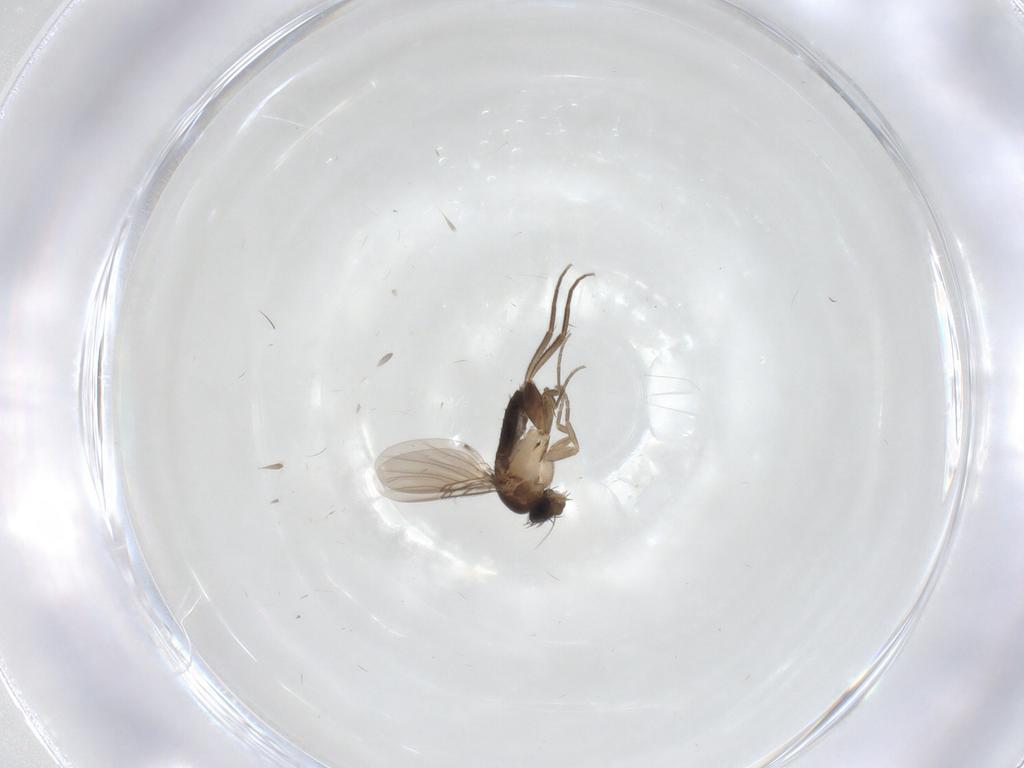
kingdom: Animalia
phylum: Arthropoda
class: Insecta
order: Diptera
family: Phoridae
